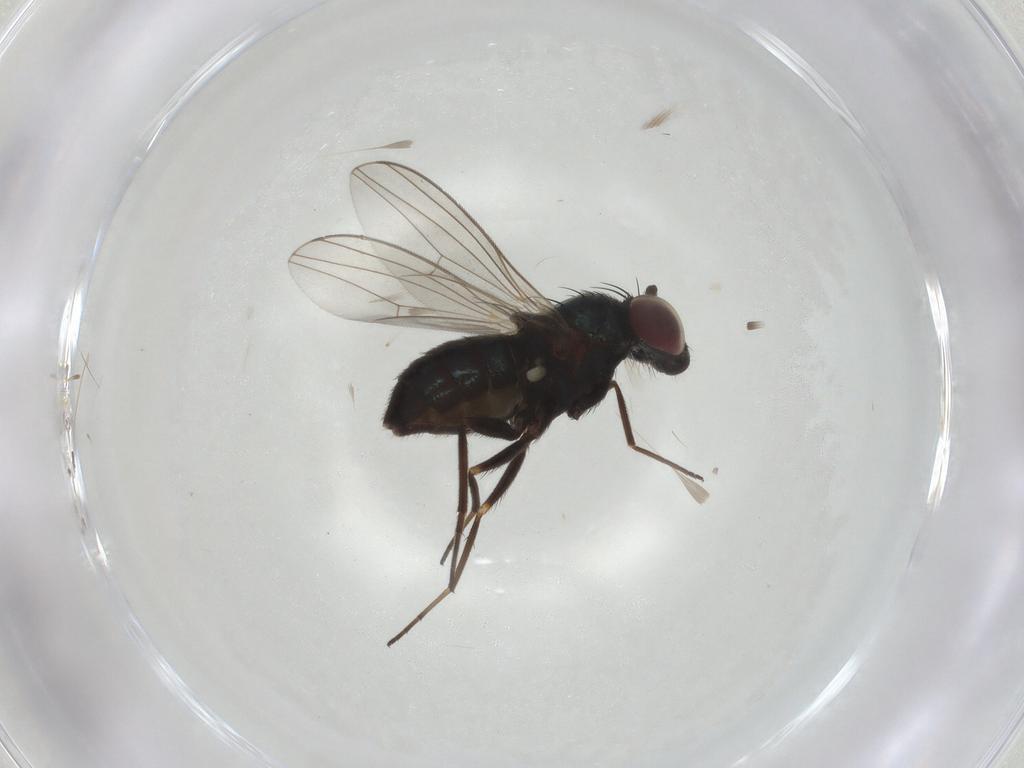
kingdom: Animalia
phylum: Arthropoda
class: Insecta
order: Diptera
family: Dolichopodidae
